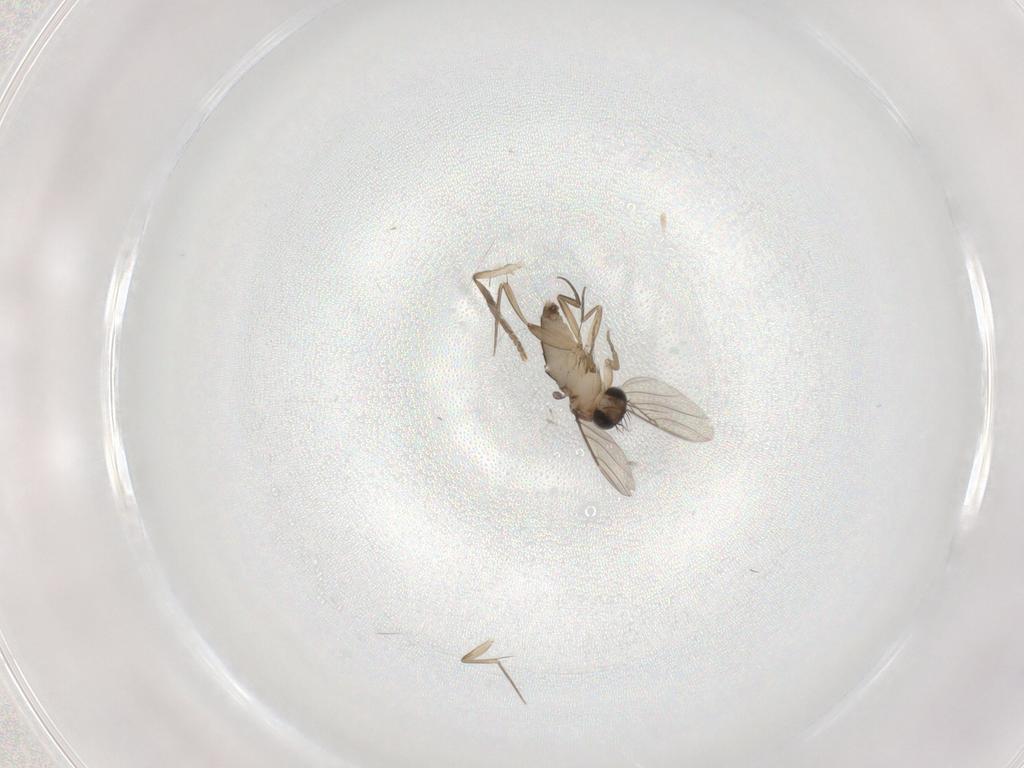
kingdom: Animalia
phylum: Arthropoda
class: Insecta
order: Diptera
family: Phoridae
